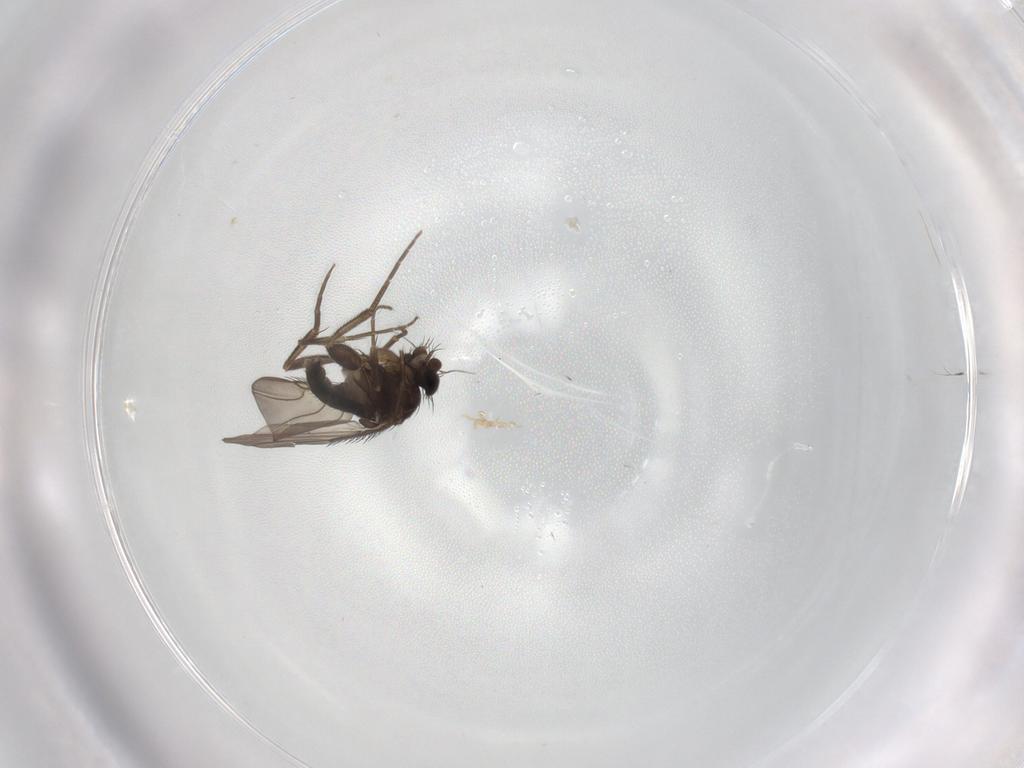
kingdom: Animalia
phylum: Arthropoda
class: Insecta
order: Diptera
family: Phoridae
